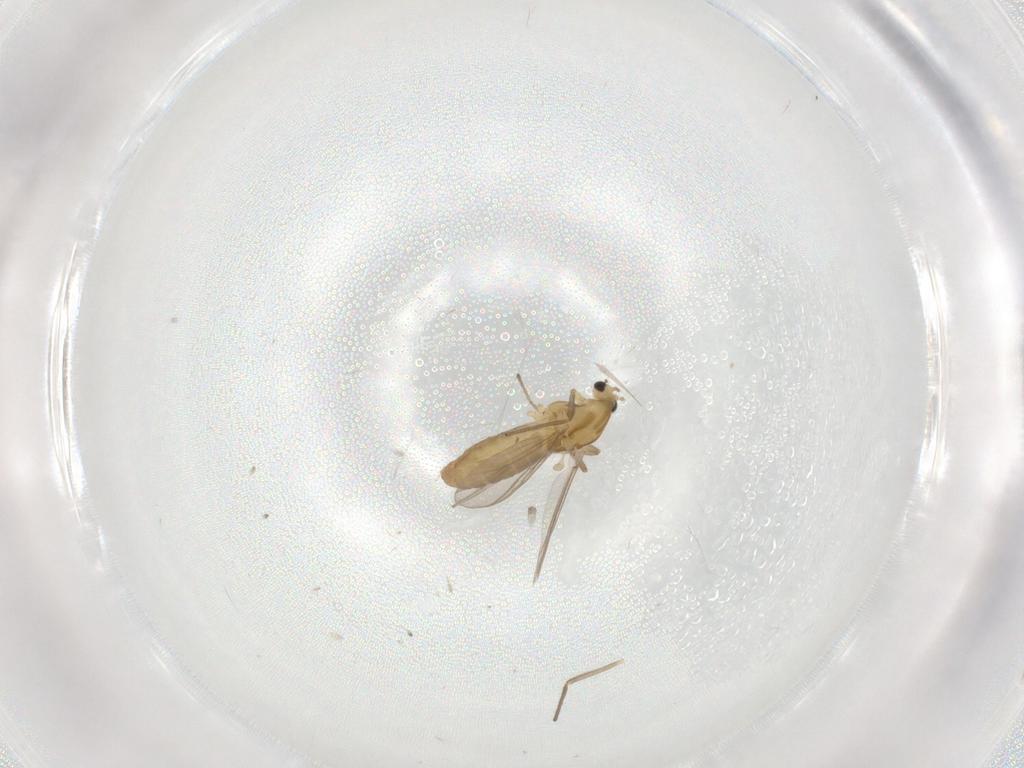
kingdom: Animalia
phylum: Arthropoda
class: Insecta
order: Diptera
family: Chironomidae
